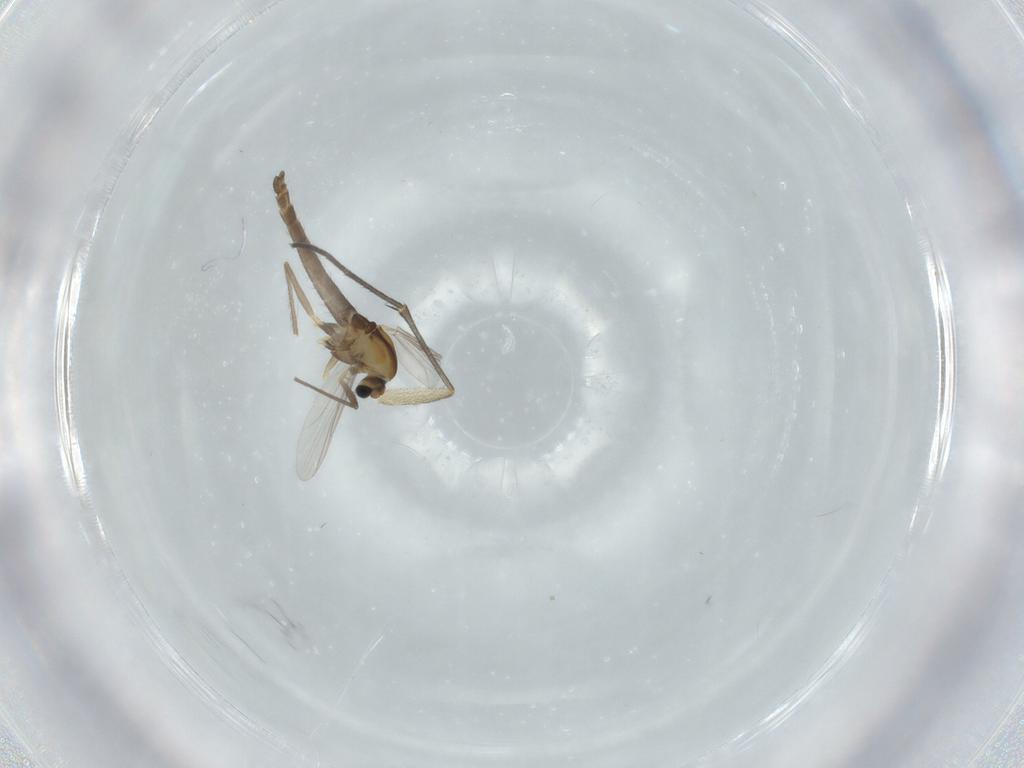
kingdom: Animalia
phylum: Arthropoda
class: Insecta
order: Diptera
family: Chironomidae
